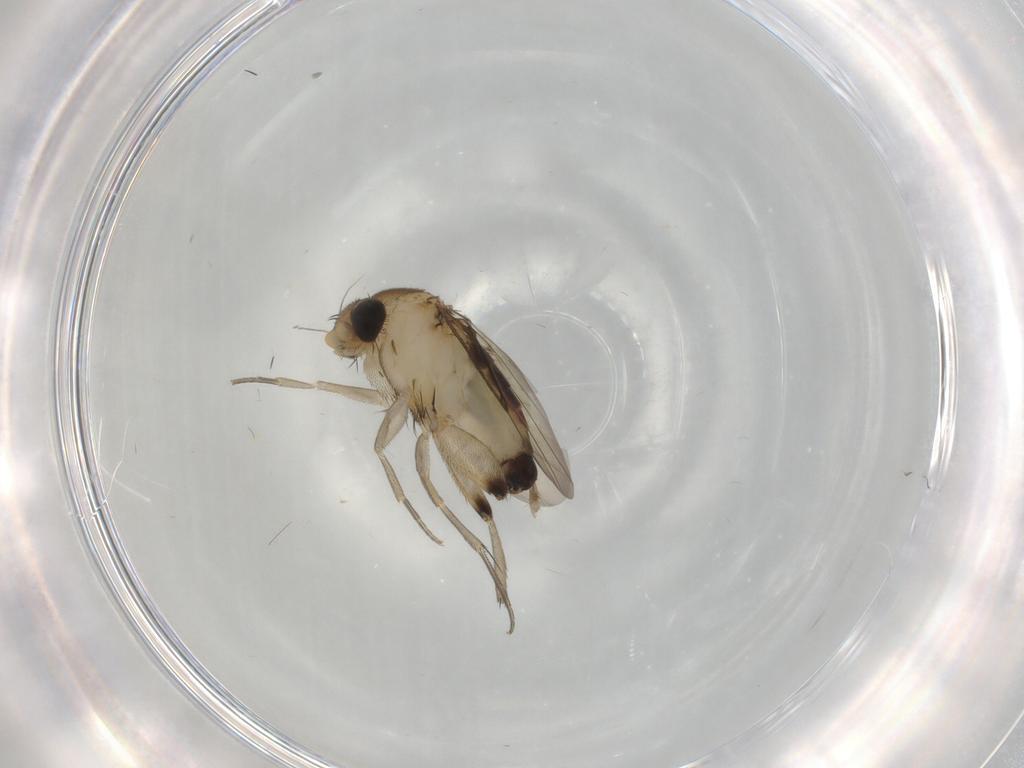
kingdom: Animalia
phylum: Arthropoda
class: Insecta
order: Diptera
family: Phoridae
